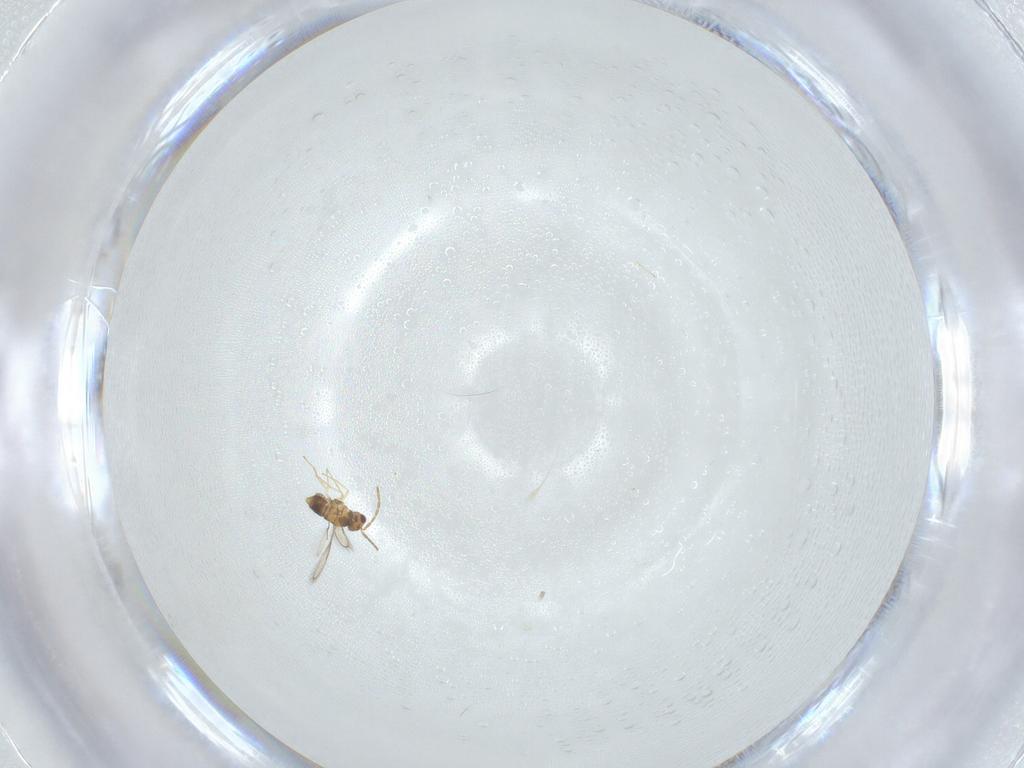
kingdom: Animalia
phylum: Arthropoda
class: Insecta
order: Hymenoptera
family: Aphelinidae
